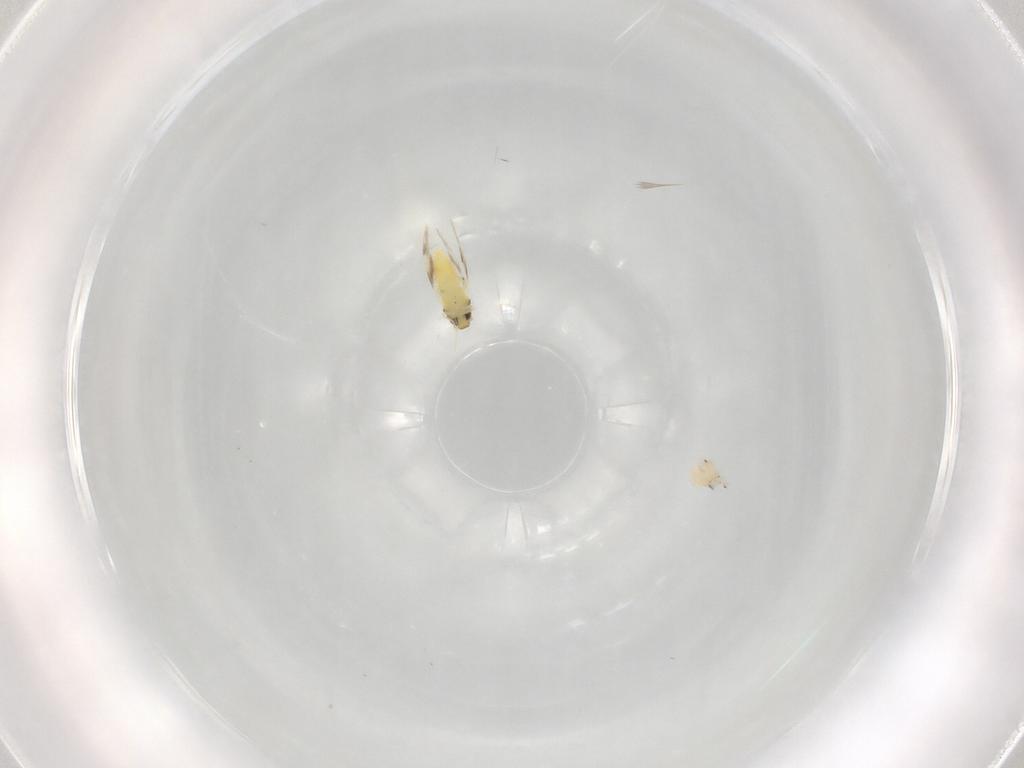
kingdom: Animalia
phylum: Arthropoda
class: Insecta
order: Hemiptera
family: Aleyrodidae
